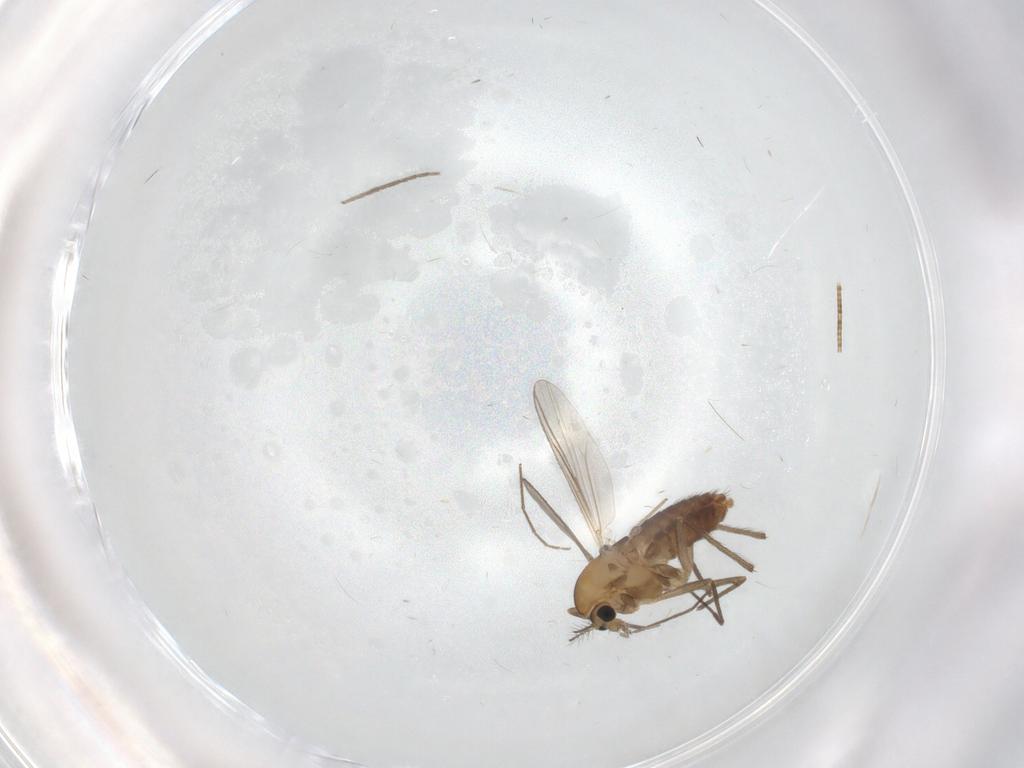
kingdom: Animalia
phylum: Arthropoda
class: Insecta
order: Diptera
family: Chironomidae
